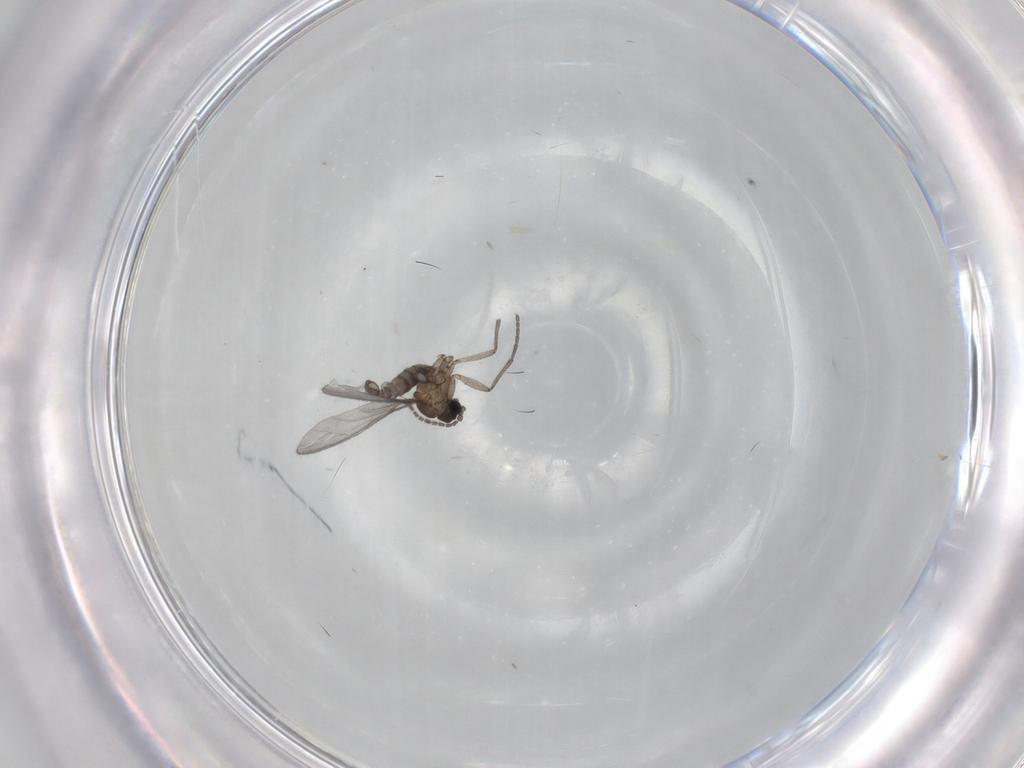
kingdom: Animalia
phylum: Arthropoda
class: Insecta
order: Diptera
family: Sciaridae
